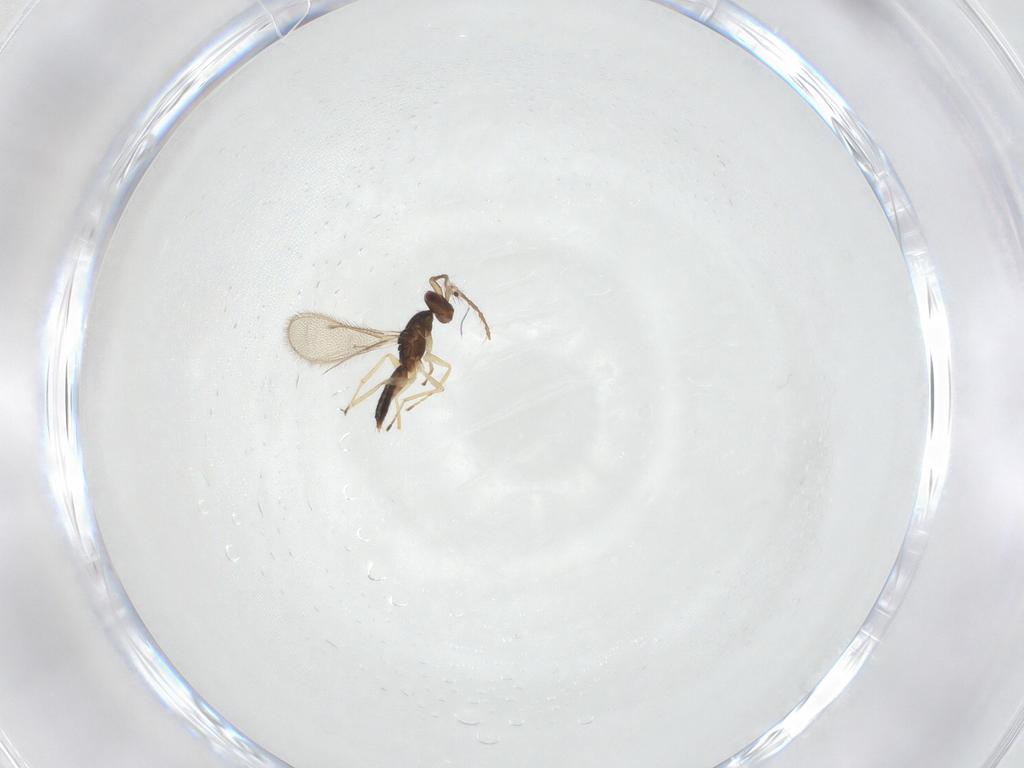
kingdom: Animalia
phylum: Arthropoda
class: Insecta
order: Hymenoptera
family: Eulophidae
